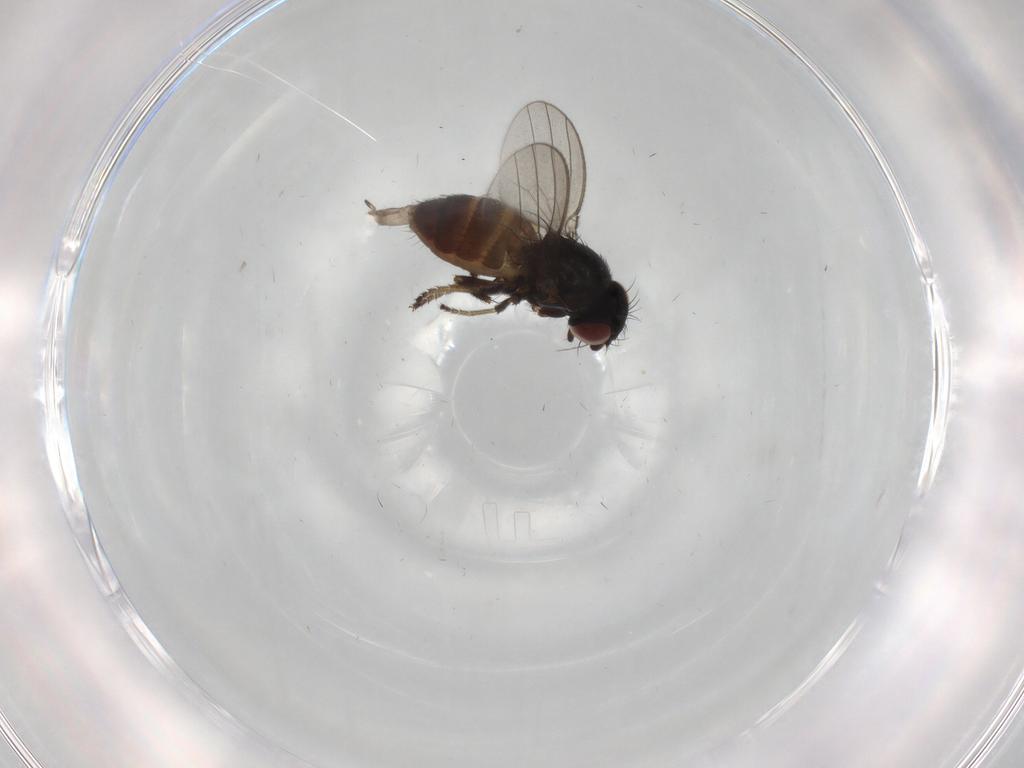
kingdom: Animalia
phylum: Arthropoda
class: Insecta
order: Diptera
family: Milichiidae
